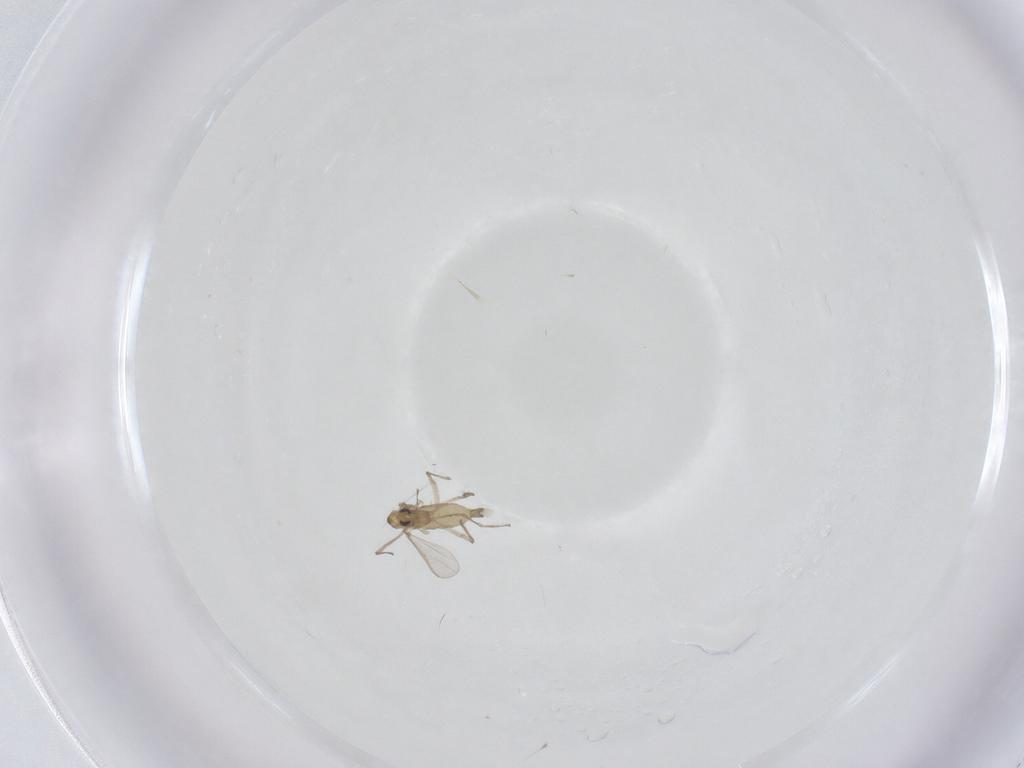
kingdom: Animalia
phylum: Arthropoda
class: Insecta
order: Diptera
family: Chironomidae
